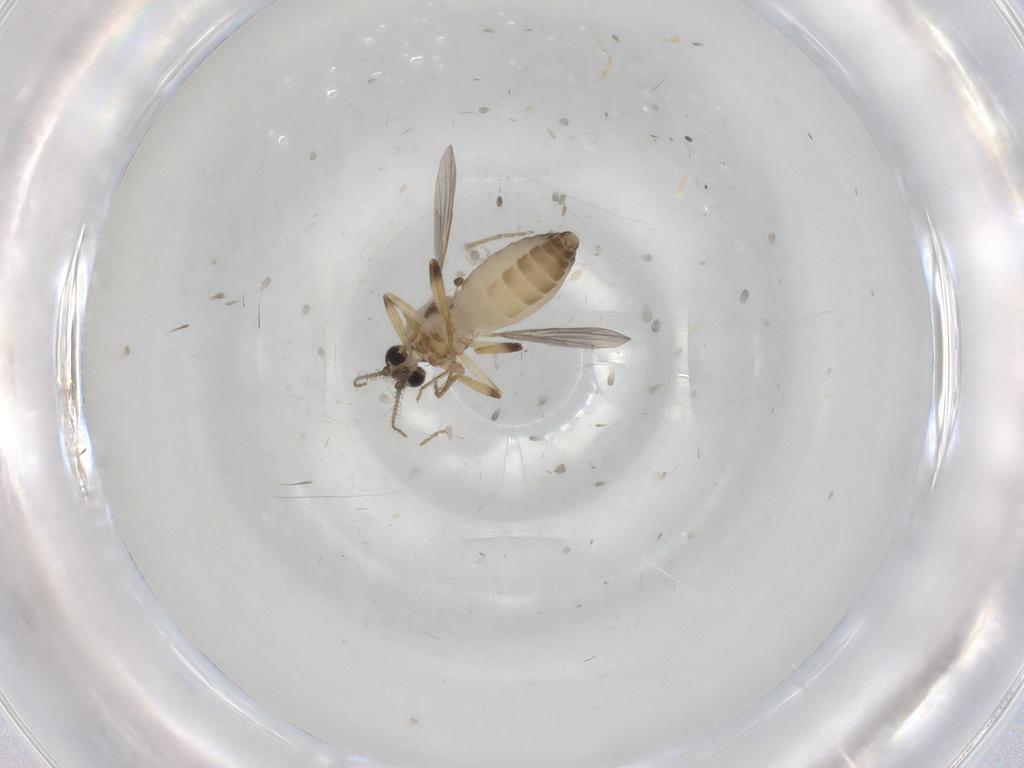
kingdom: Animalia
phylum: Arthropoda
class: Insecta
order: Diptera
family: Ceratopogonidae
